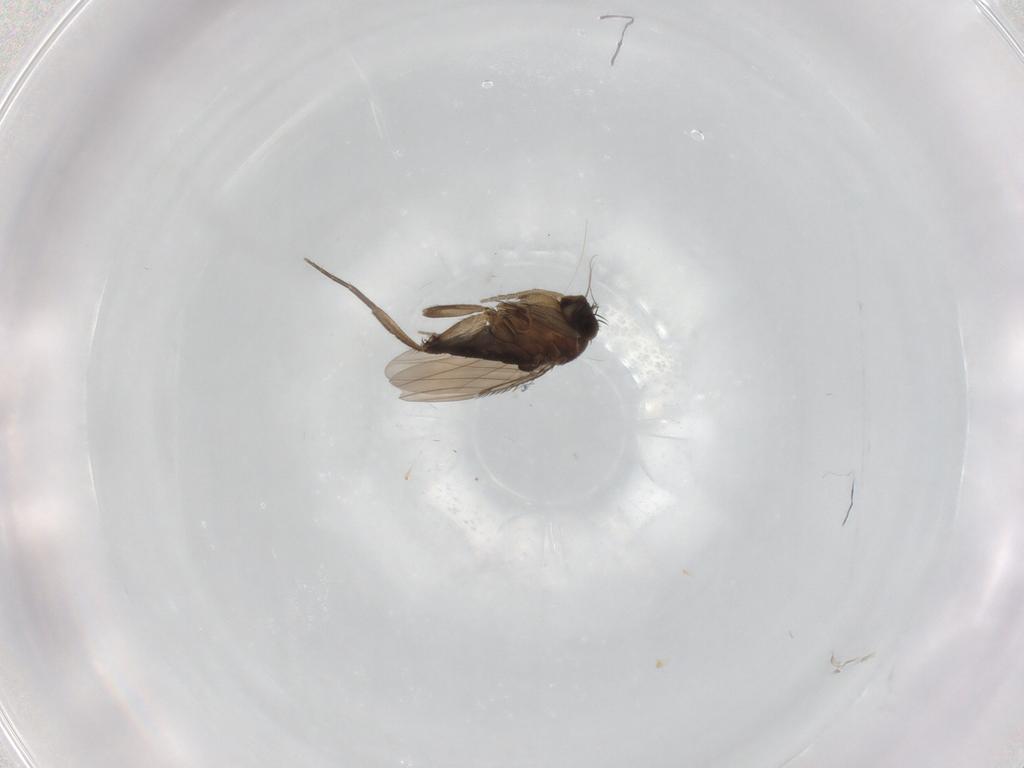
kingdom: Animalia
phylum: Arthropoda
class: Insecta
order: Diptera
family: Phoridae
